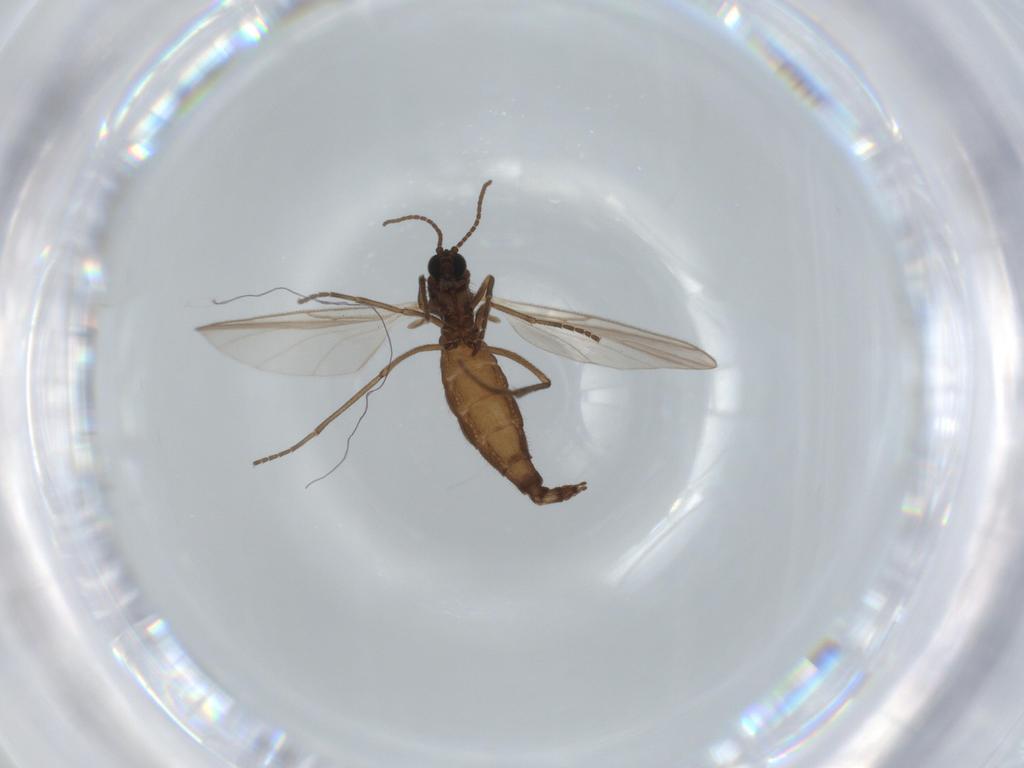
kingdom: Animalia
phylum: Arthropoda
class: Insecta
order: Diptera
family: Sciaridae
